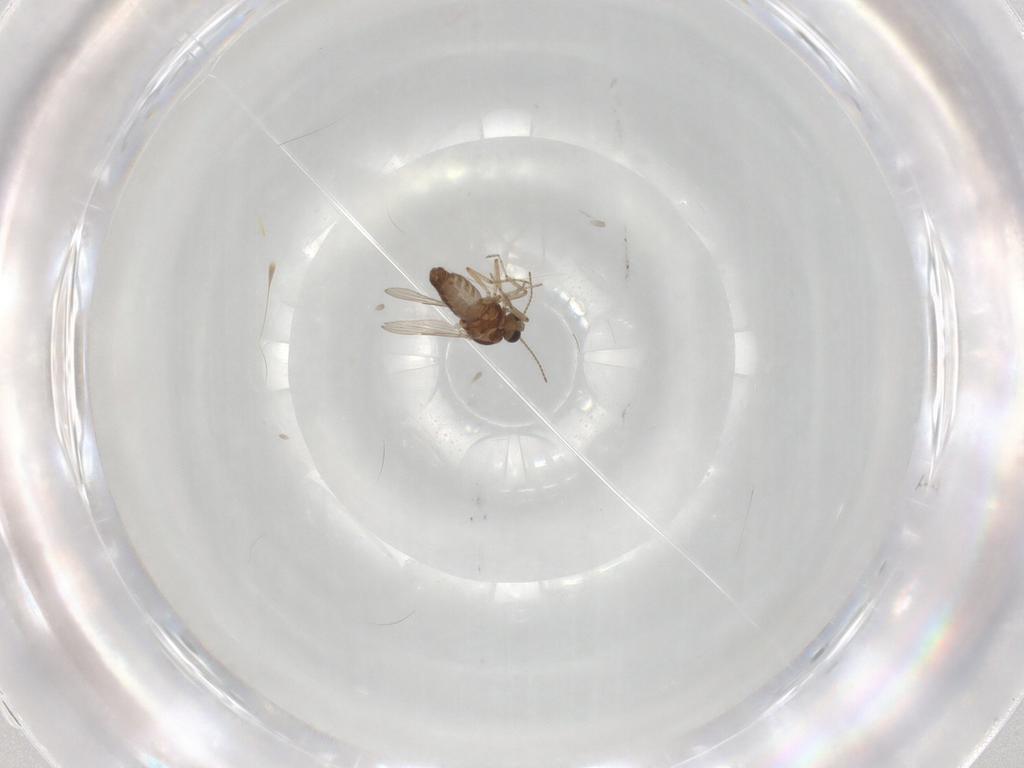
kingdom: Animalia
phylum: Arthropoda
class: Insecta
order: Diptera
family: Ceratopogonidae
